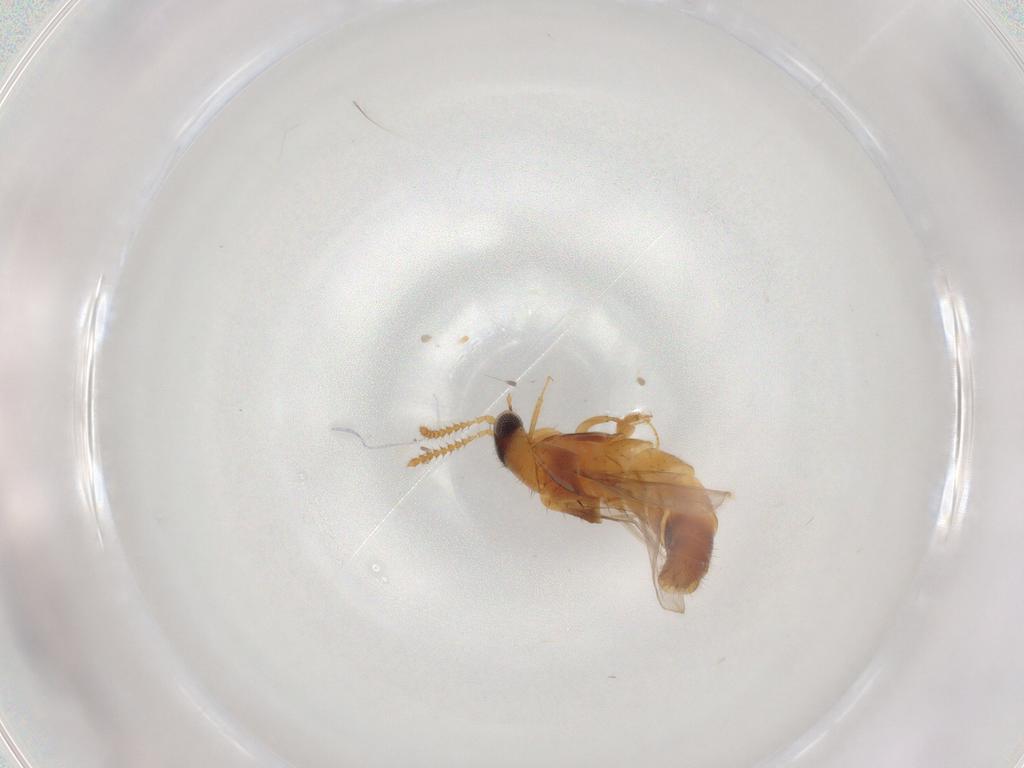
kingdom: Animalia
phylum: Arthropoda
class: Insecta
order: Coleoptera
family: Staphylinidae
